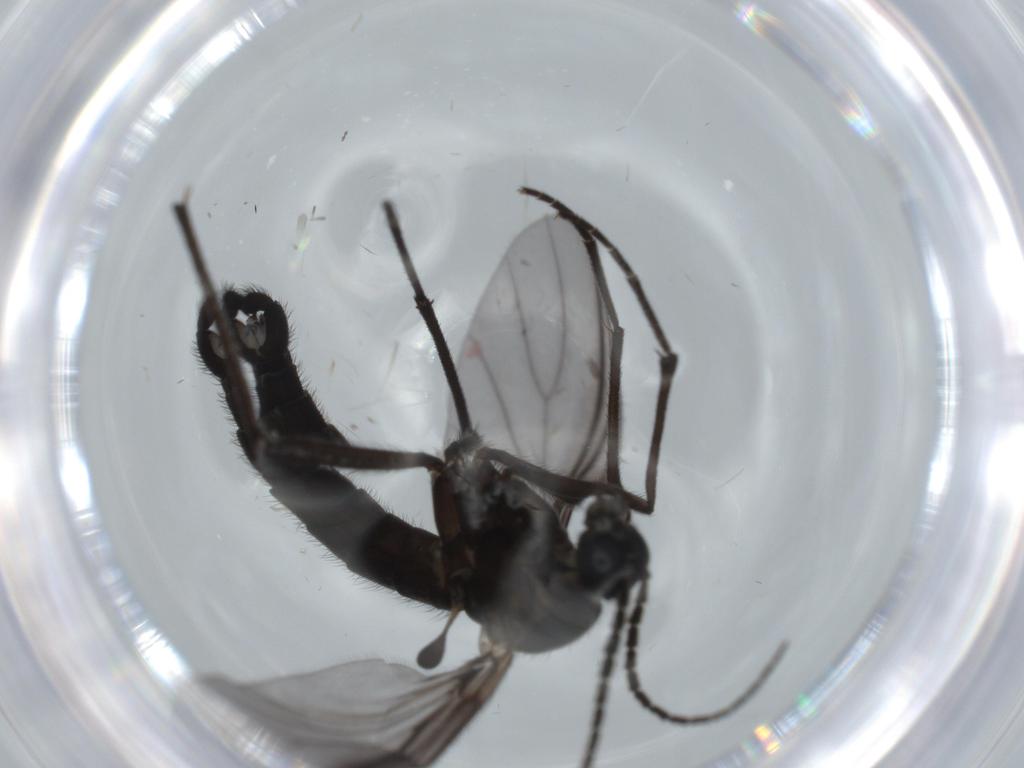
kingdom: Animalia
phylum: Arthropoda
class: Insecta
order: Diptera
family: Cecidomyiidae
